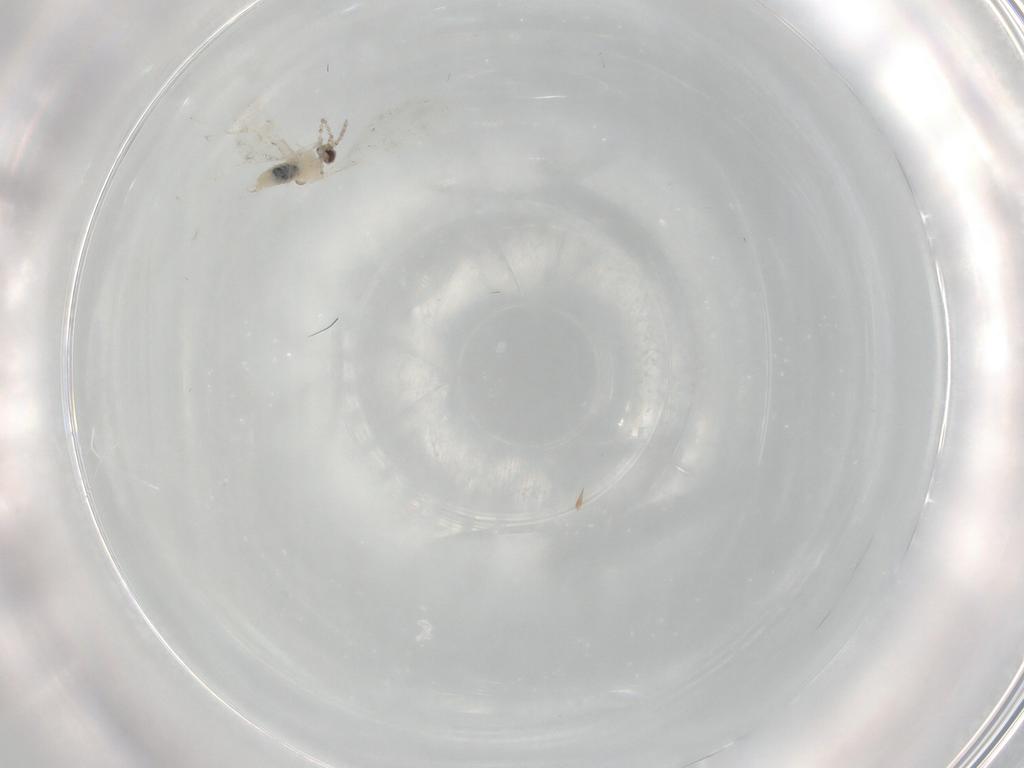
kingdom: Animalia
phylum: Arthropoda
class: Insecta
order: Diptera
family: Cecidomyiidae
